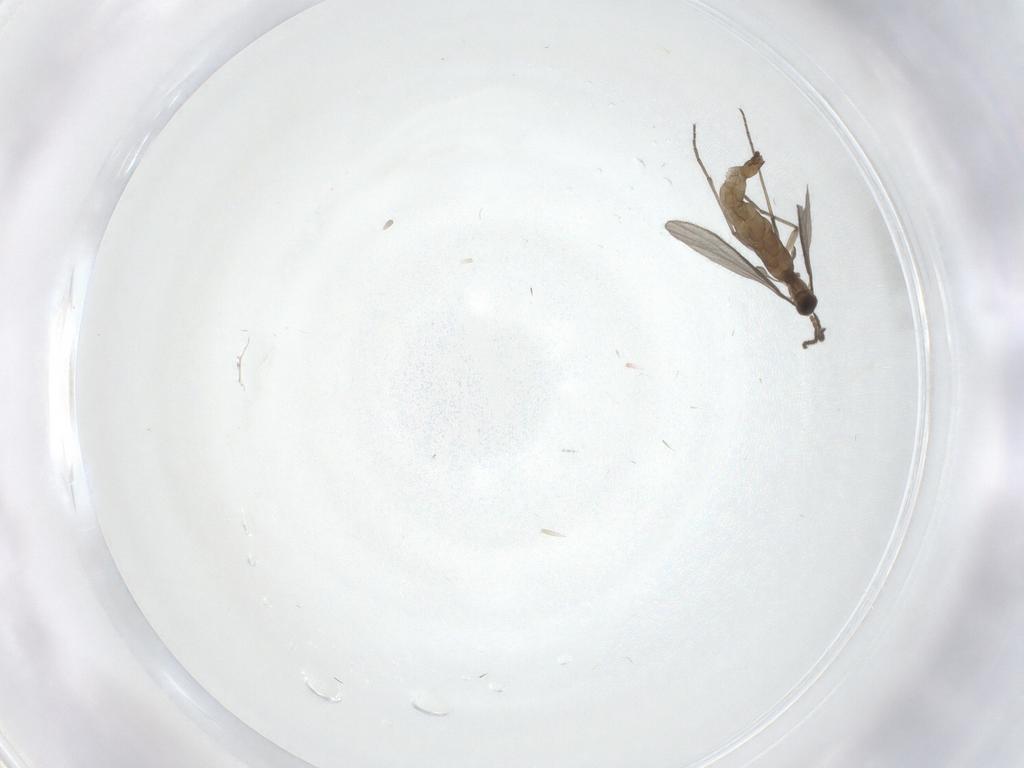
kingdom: Animalia
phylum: Arthropoda
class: Insecta
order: Diptera
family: Sciaridae
